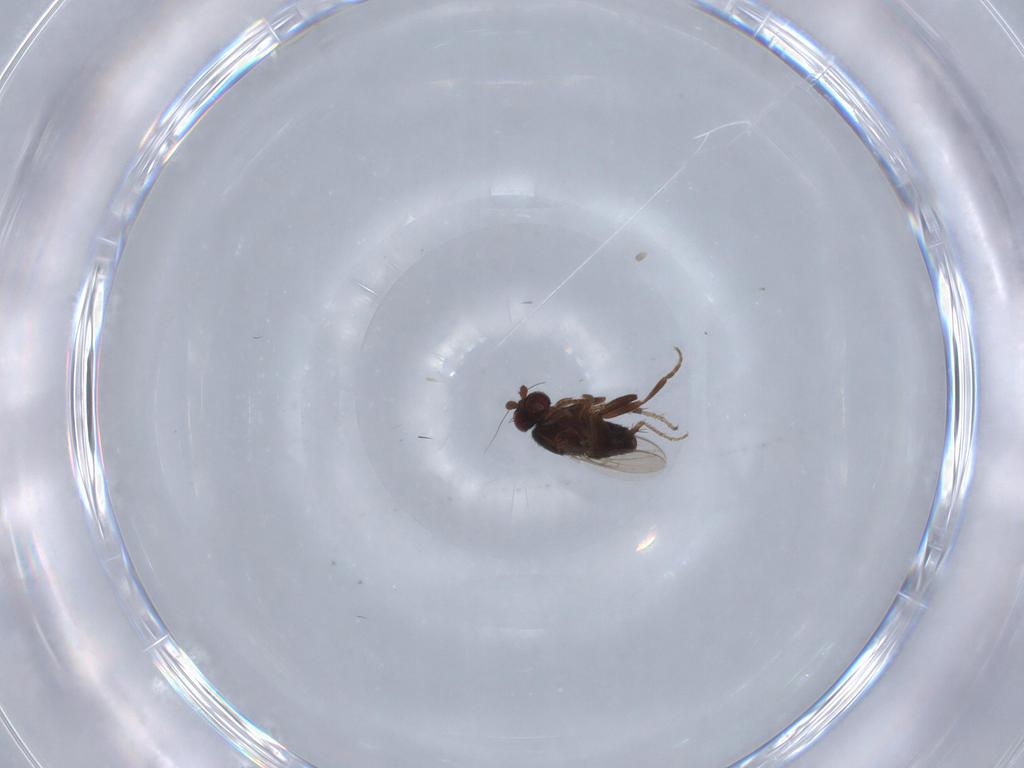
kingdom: Animalia
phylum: Arthropoda
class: Insecta
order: Diptera
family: Sphaeroceridae
